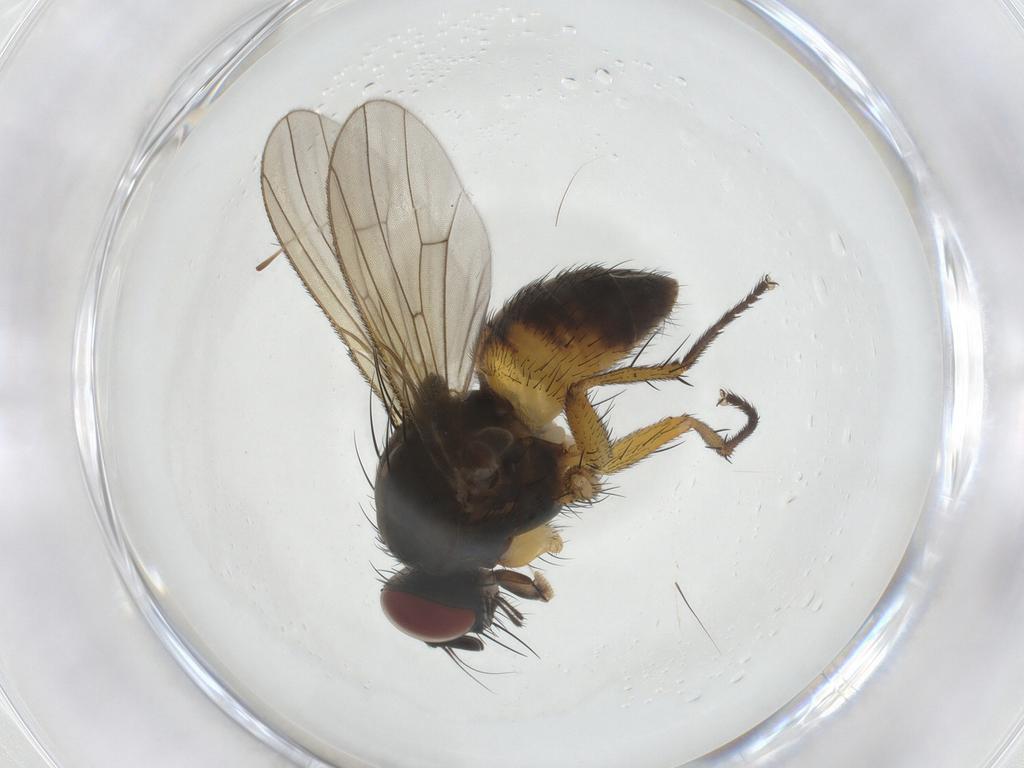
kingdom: Animalia
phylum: Arthropoda
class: Insecta
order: Diptera
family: Muscidae
